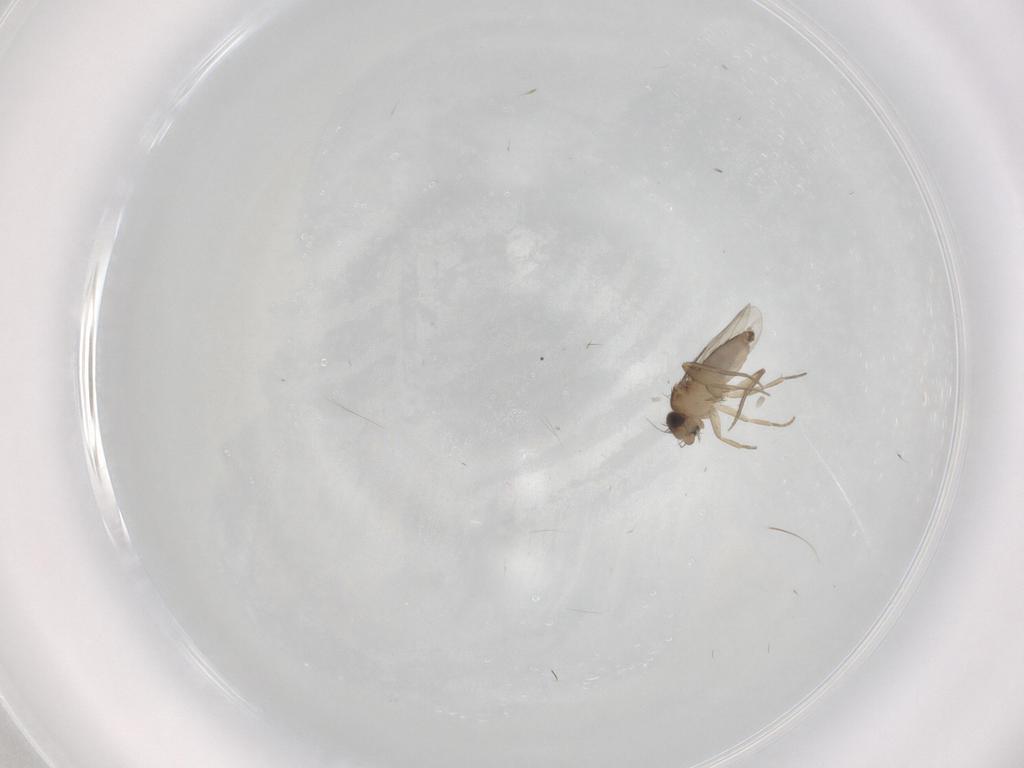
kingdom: Animalia
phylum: Arthropoda
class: Insecta
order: Diptera
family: Phoridae
